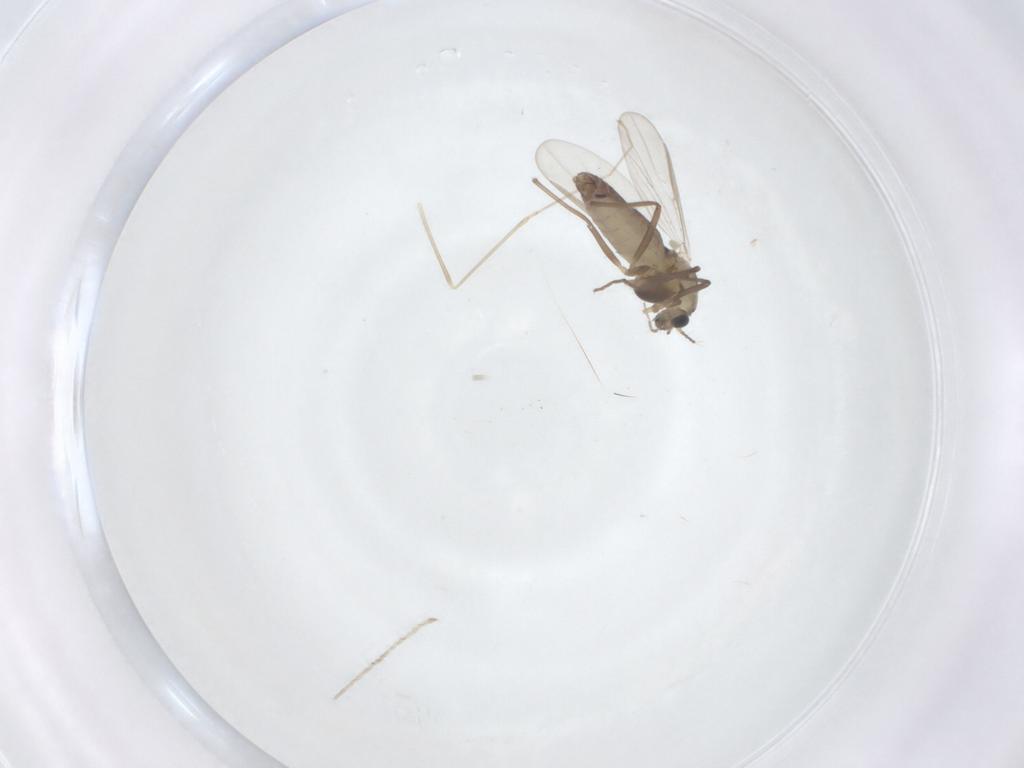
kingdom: Animalia
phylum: Arthropoda
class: Insecta
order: Diptera
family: Chironomidae
